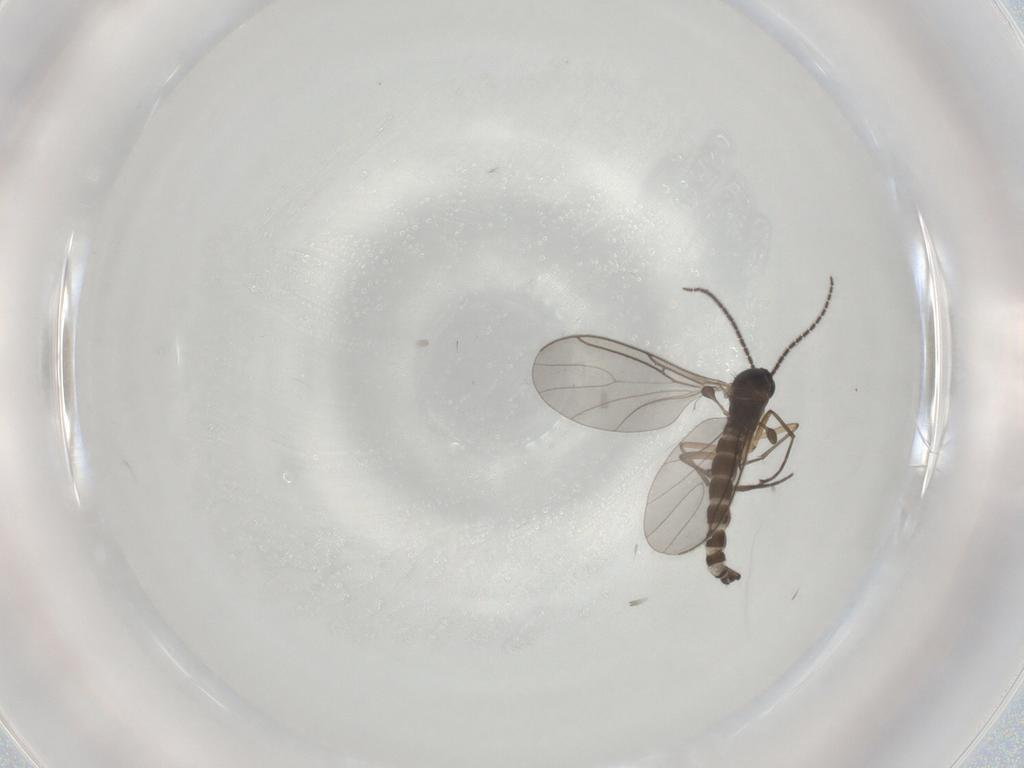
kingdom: Animalia
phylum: Arthropoda
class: Insecta
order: Diptera
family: Sciaridae
